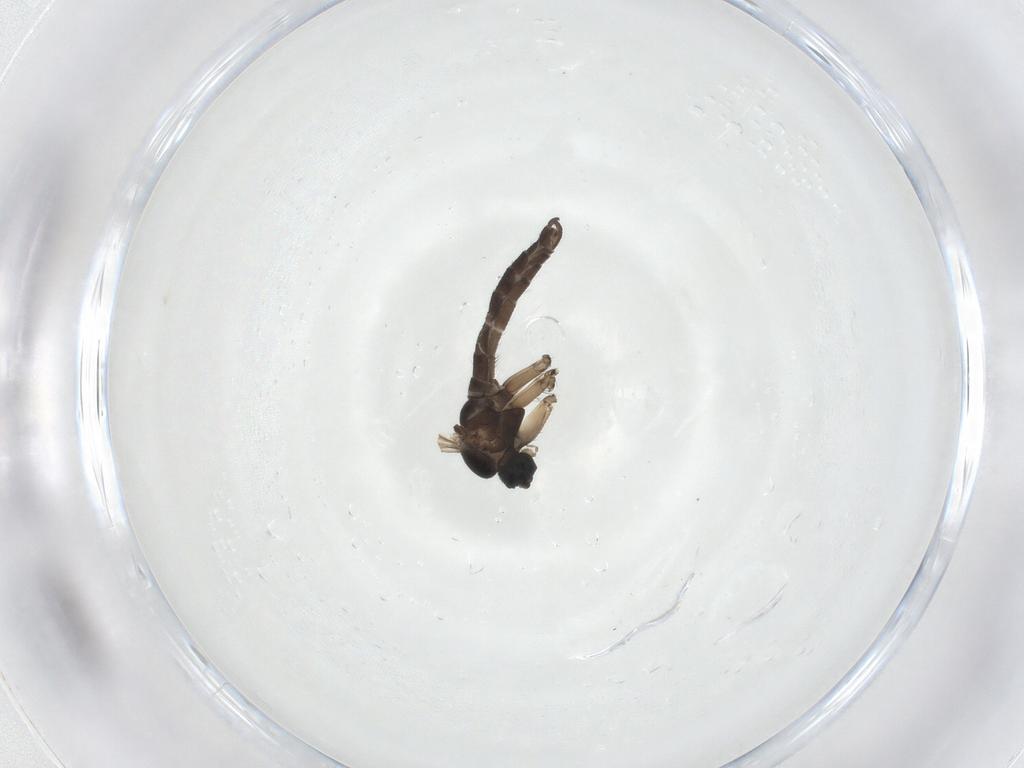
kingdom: Animalia
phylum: Arthropoda
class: Insecta
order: Diptera
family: Sciaridae
